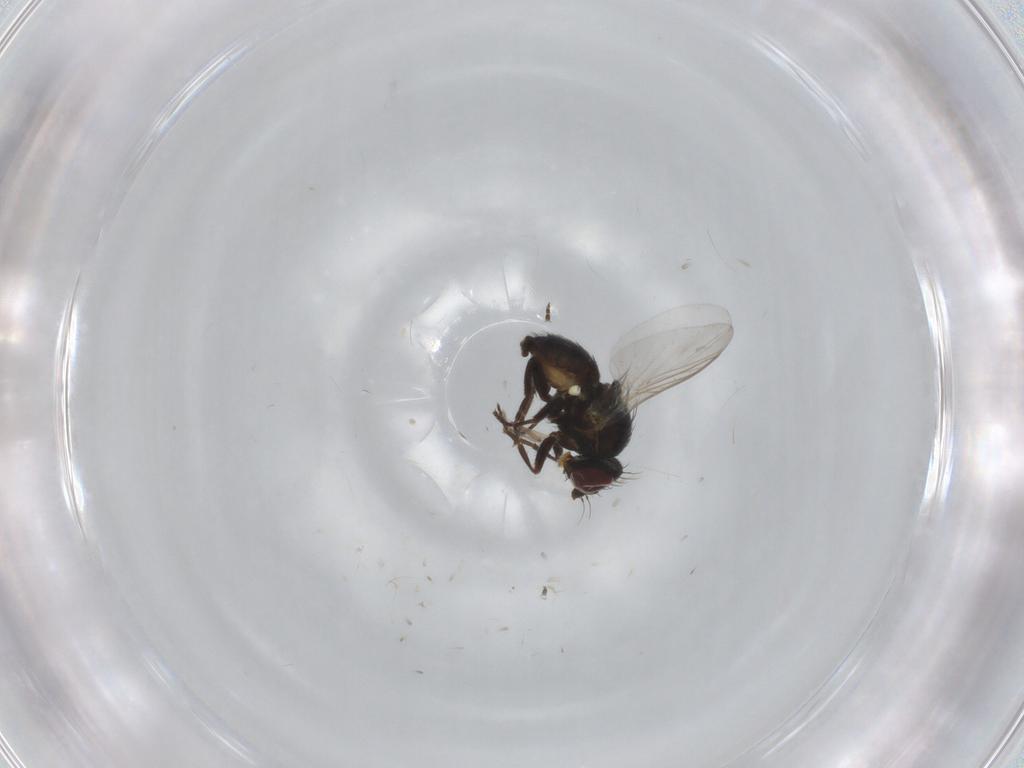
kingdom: Animalia
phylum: Arthropoda
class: Insecta
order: Diptera
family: Agromyzidae
